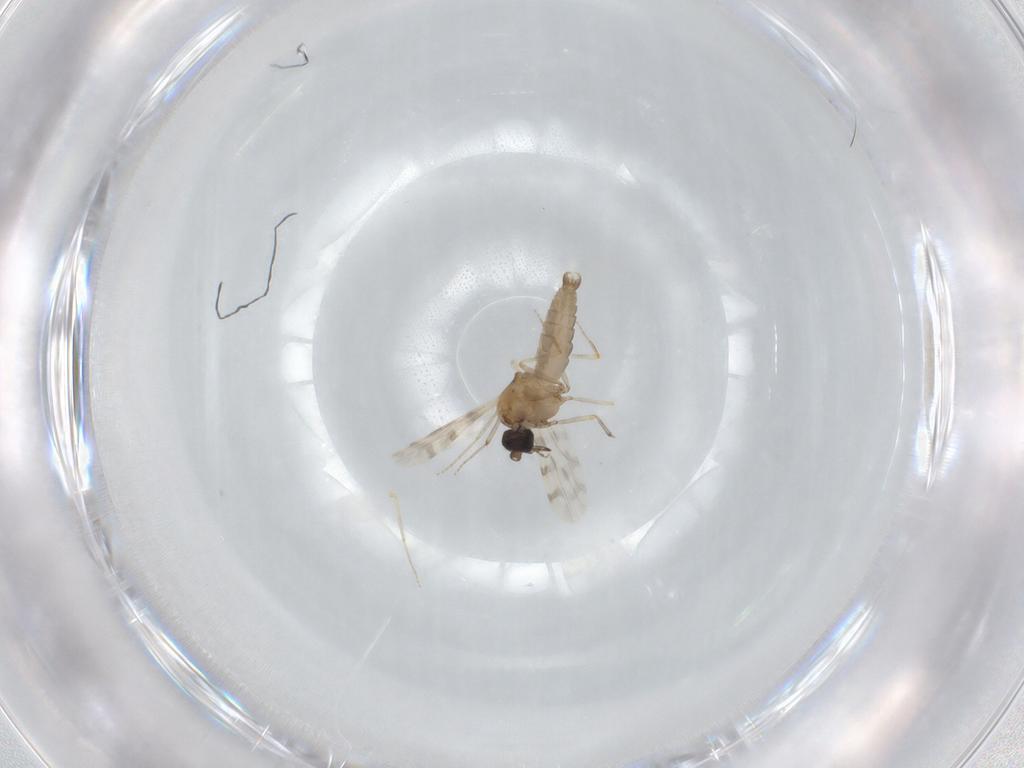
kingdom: Animalia
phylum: Arthropoda
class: Insecta
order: Diptera
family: Ceratopogonidae
